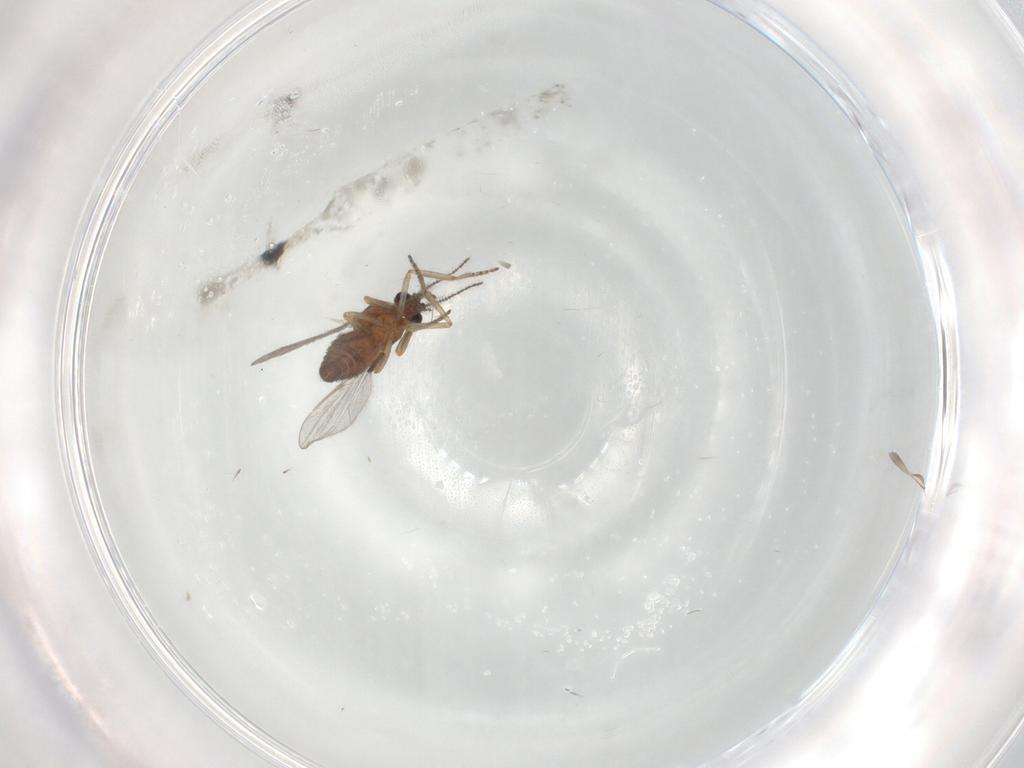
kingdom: Animalia
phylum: Arthropoda
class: Insecta
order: Diptera
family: Ceratopogonidae
